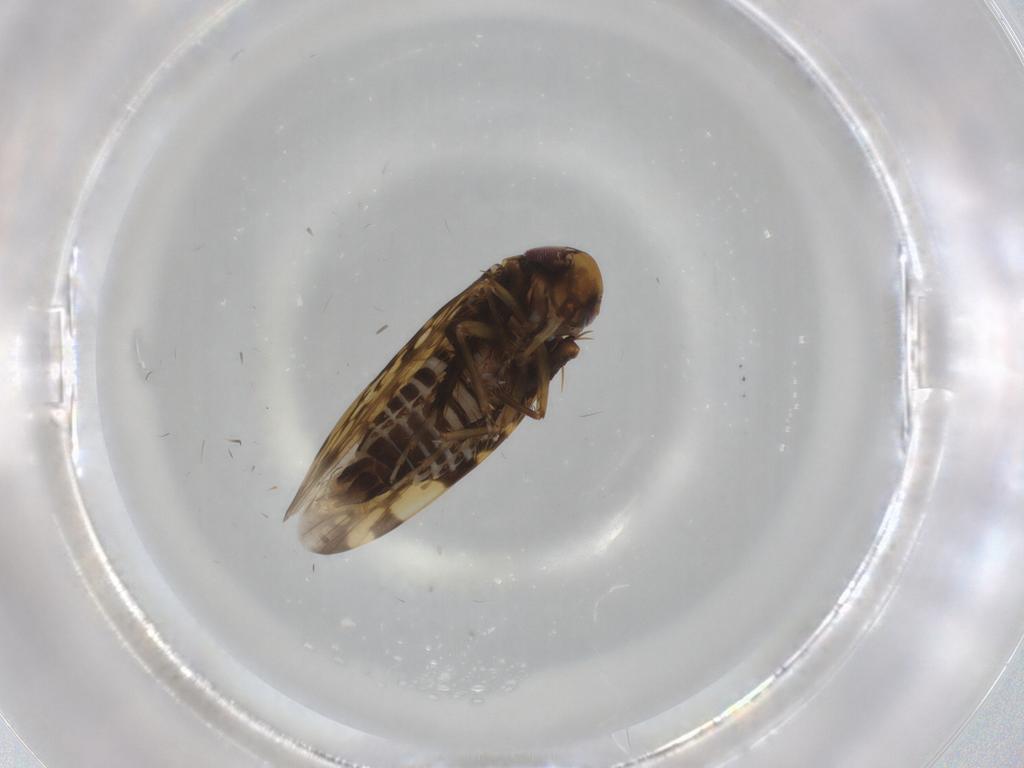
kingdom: Animalia
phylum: Arthropoda
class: Insecta
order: Hemiptera
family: Cicadellidae
